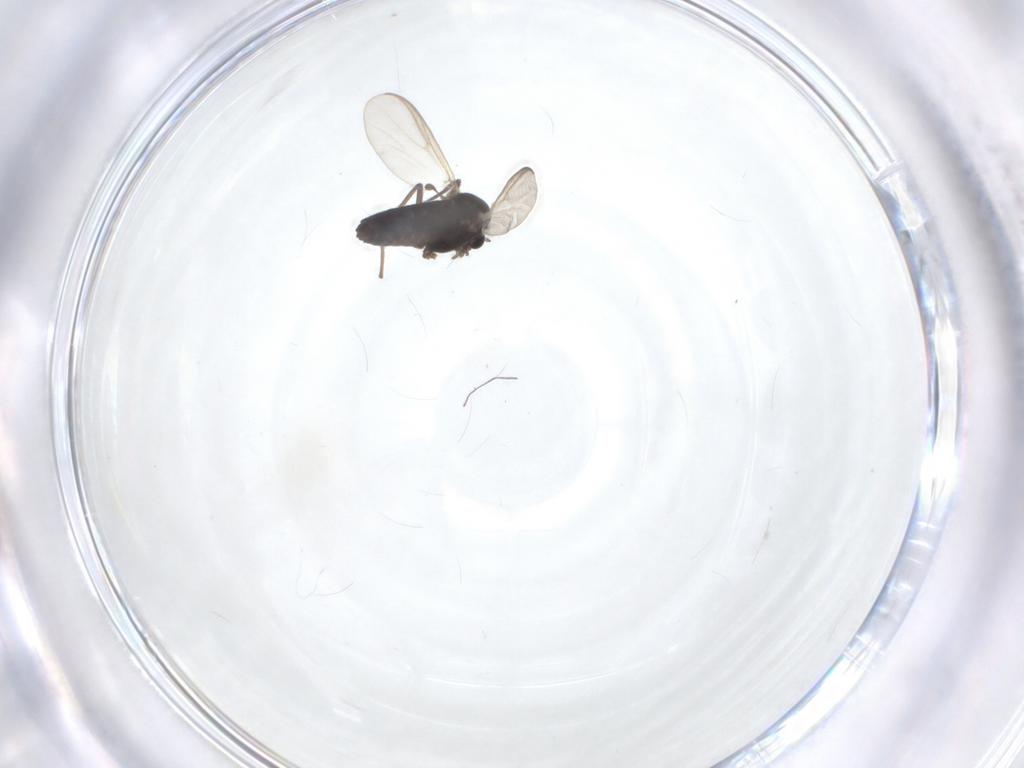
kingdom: Animalia
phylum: Arthropoda
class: Insecta
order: Diptera
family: Chironomidae
